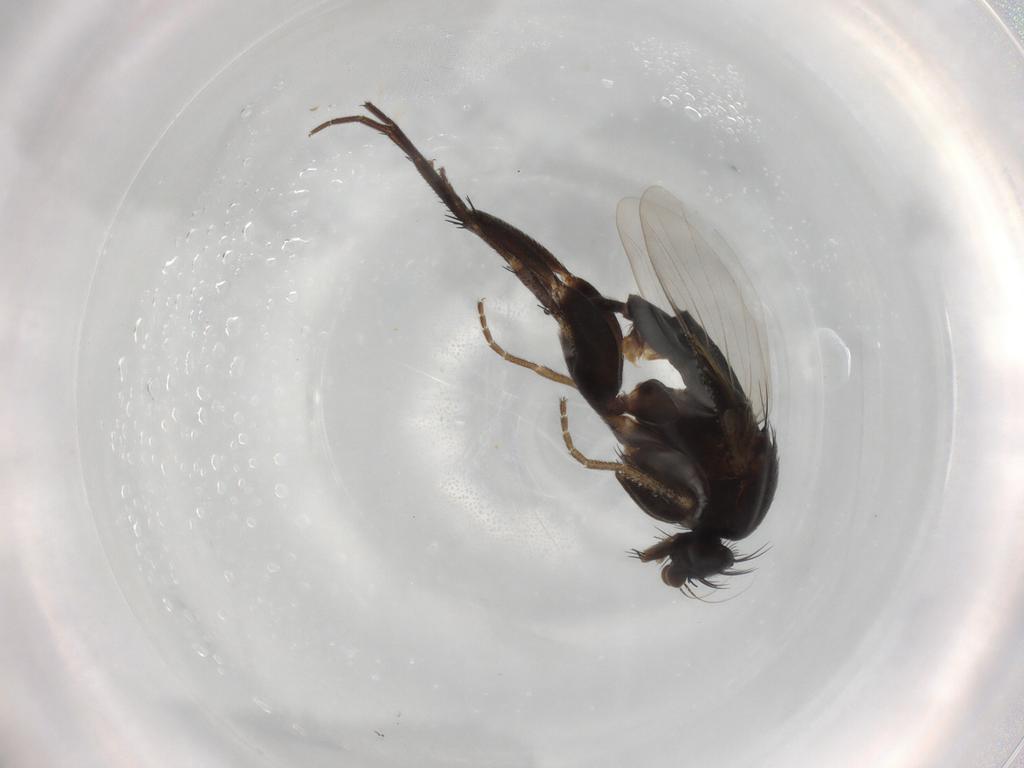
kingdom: Animalia
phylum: Arthropoda
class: Insecta
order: Diptera
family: Phoridae
